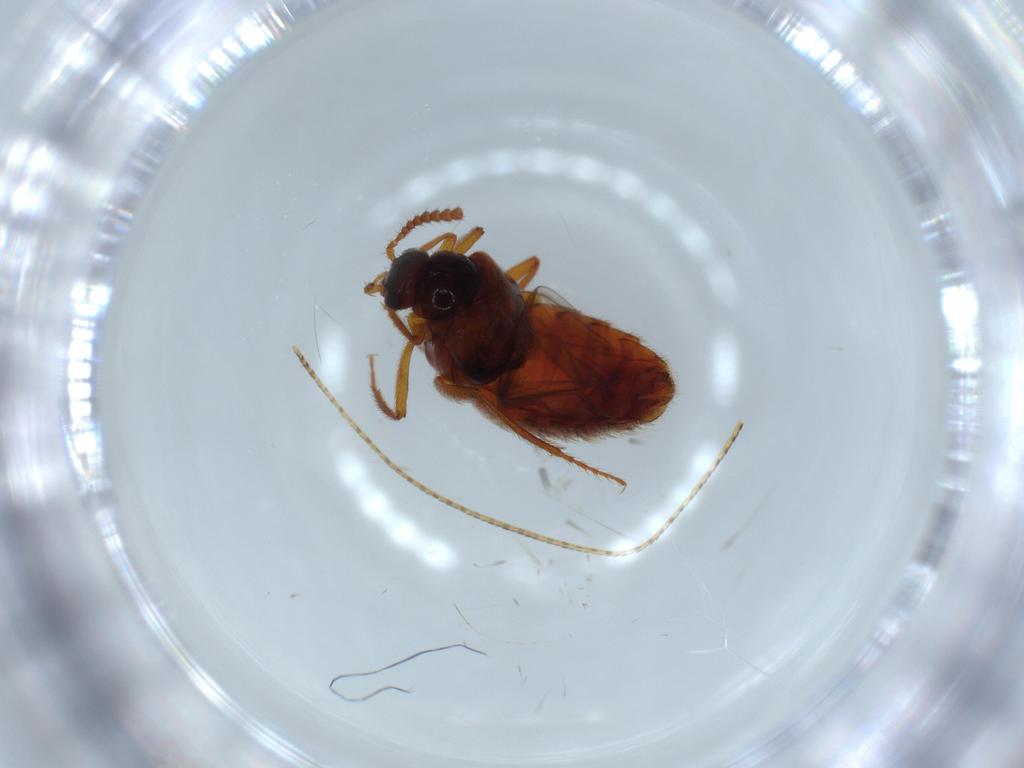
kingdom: Animalia
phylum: Arthropoda
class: Insecta
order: Coleoptera
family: Staphylinidae
